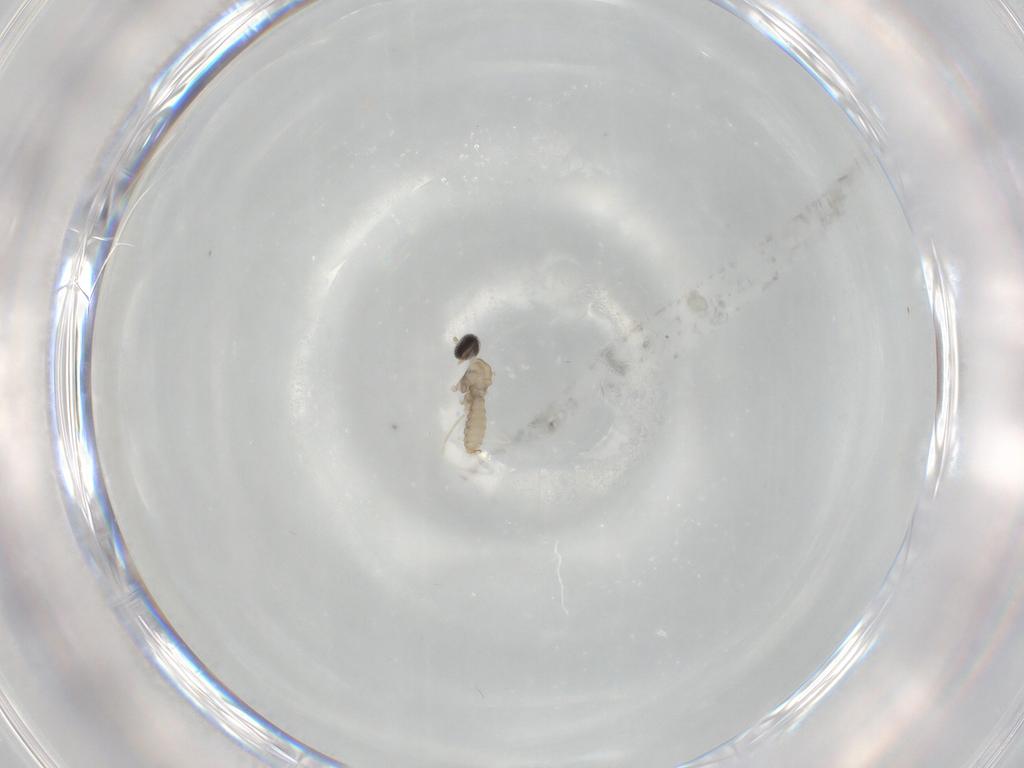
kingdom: Animalia
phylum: Arthropoda
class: Insecta
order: Diptera
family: Cecidomyiidae
